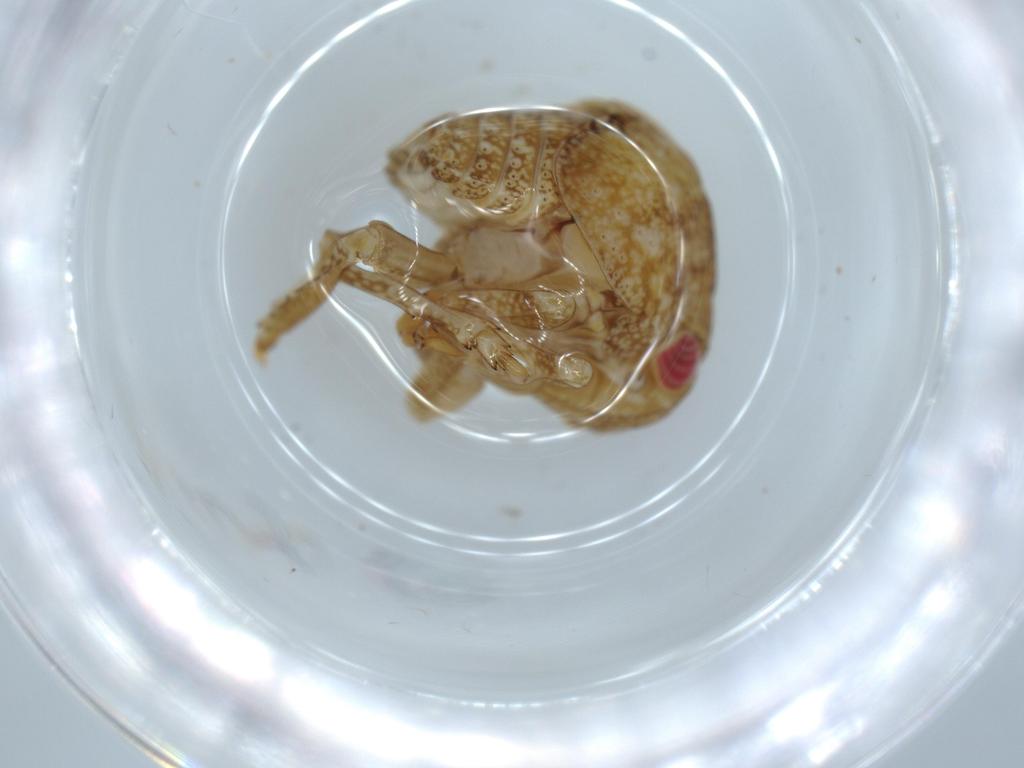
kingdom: Animalia
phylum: Arthropoda
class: Insecta
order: Hemiptera
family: Acanaloniidae
